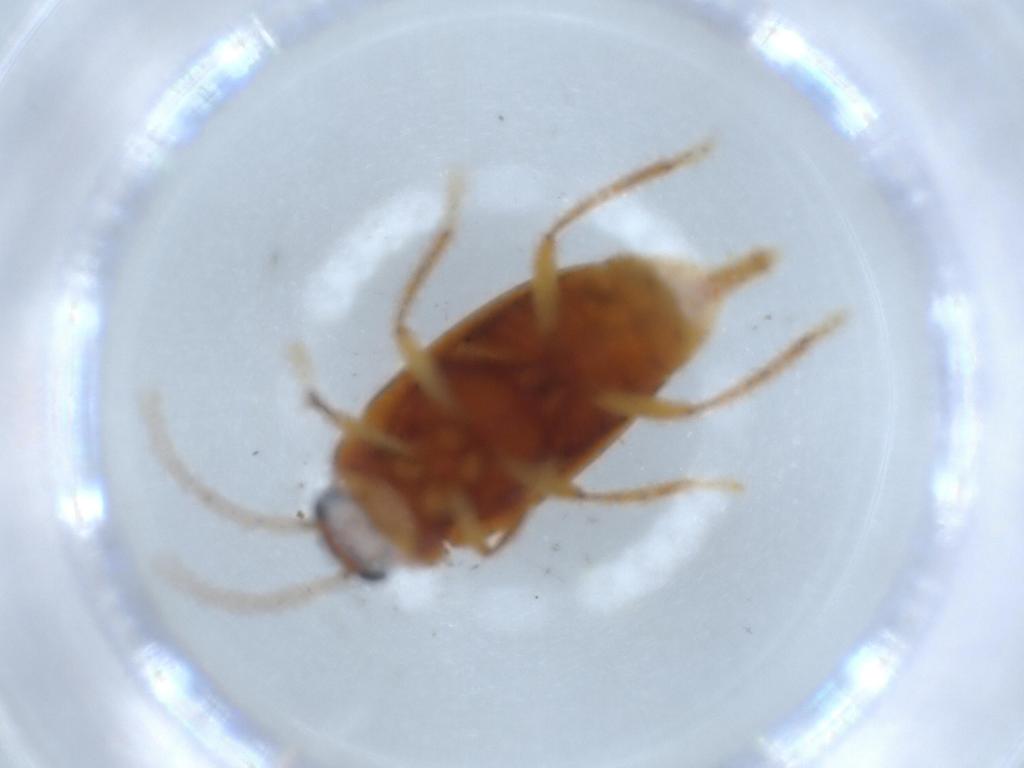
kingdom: Animalia
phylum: Arthropoda
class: Insecta
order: Coleoptera
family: Ptilodactylidae
